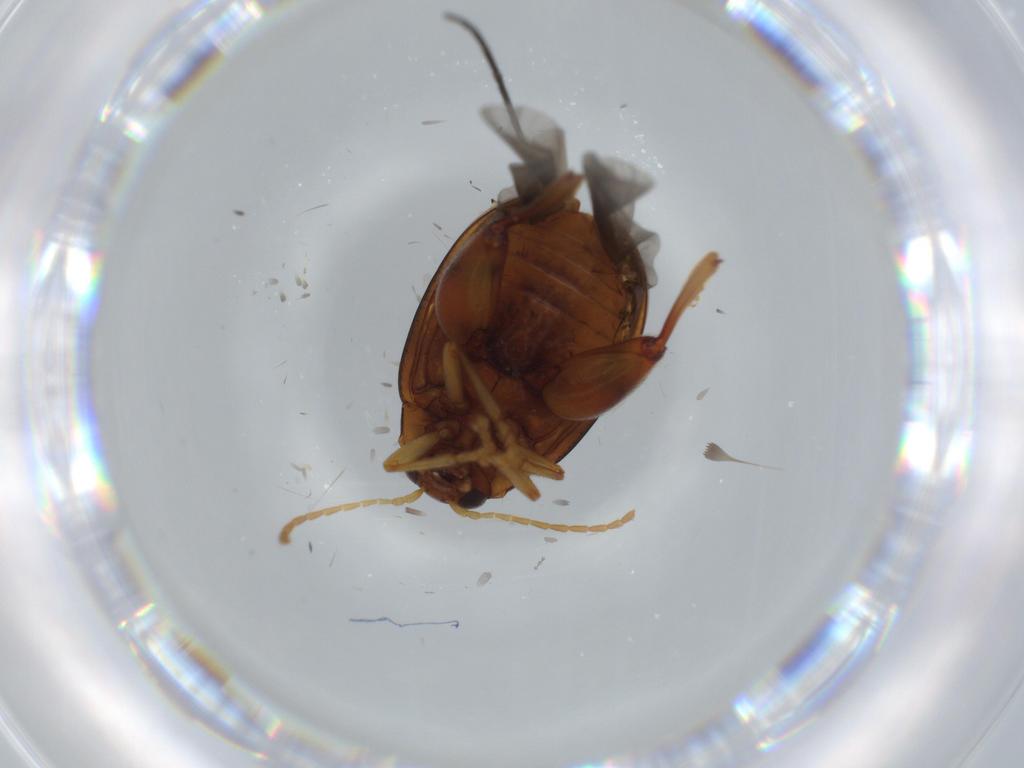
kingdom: Animalia
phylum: Arthropoda
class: Insecta
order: Coleoptera
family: Chrysomelidae
